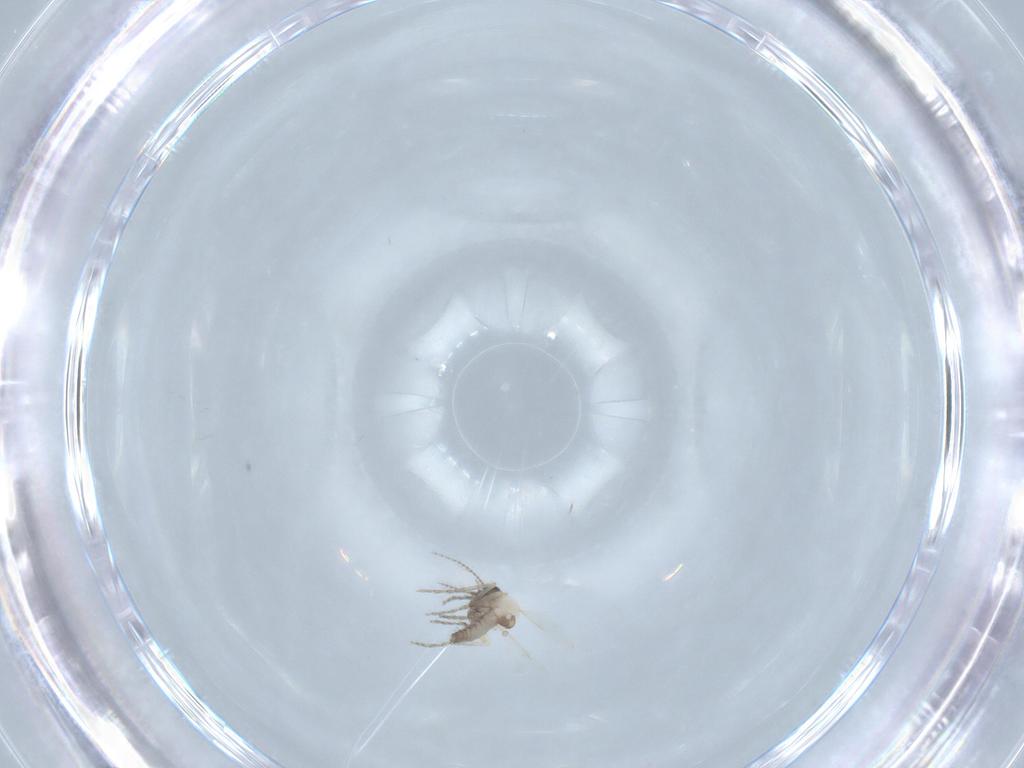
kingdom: Animalia
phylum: Arthropoda
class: Insecta
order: Diptera
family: Ceratopogonidae
